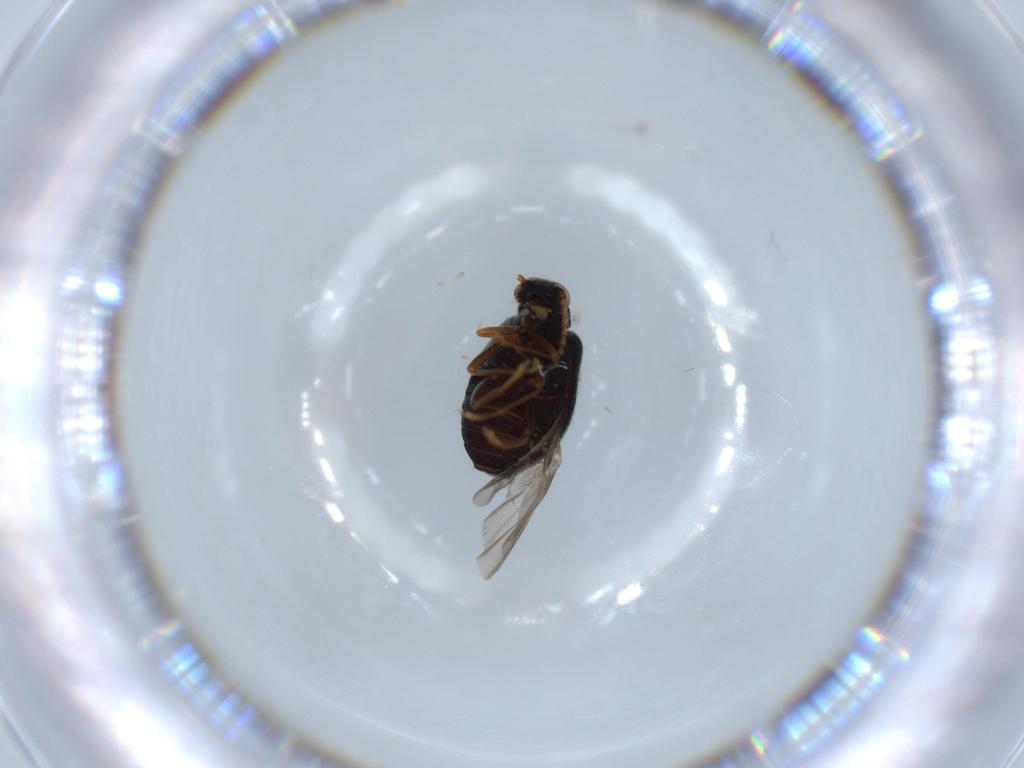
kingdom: Animalia
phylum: Arthropoda
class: Insecta
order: Coleoptera
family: Aderidae
